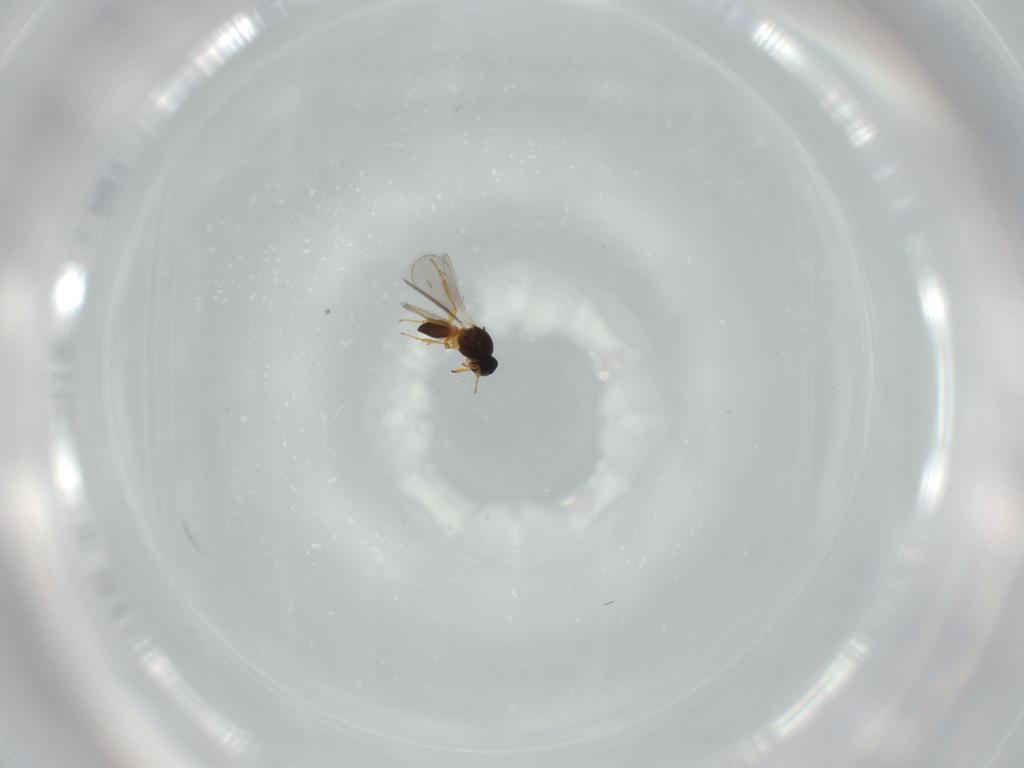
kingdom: Animalia
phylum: Arthropoda
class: Insecta
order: Hymenoptera
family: Platygastridae
